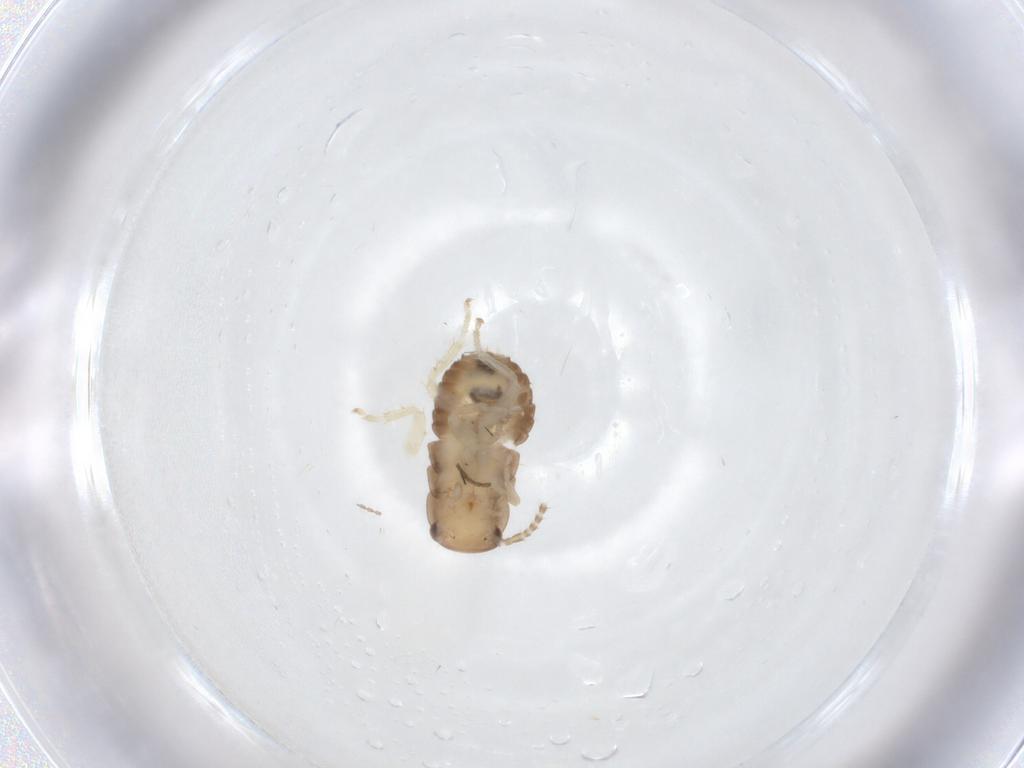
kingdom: Animalia
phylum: Arthropoda
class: Insecta
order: Blattodea
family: Ectobiidae
